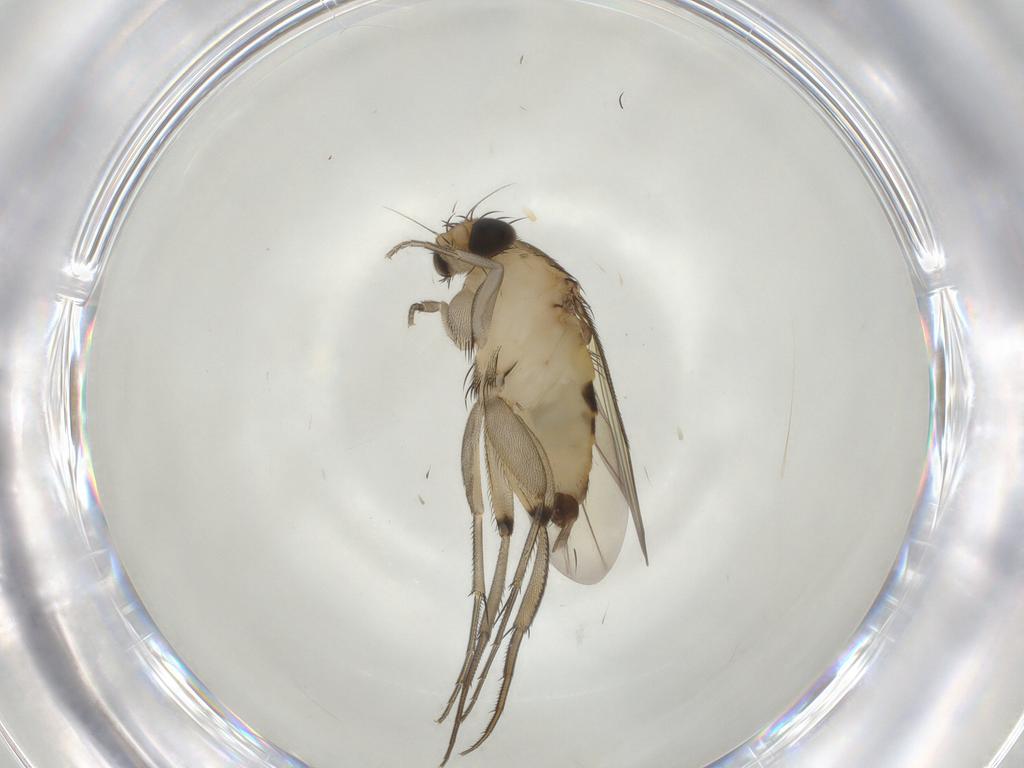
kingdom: Animalia
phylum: Arthropoda
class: Insecta
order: Diptera
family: Phoridae
